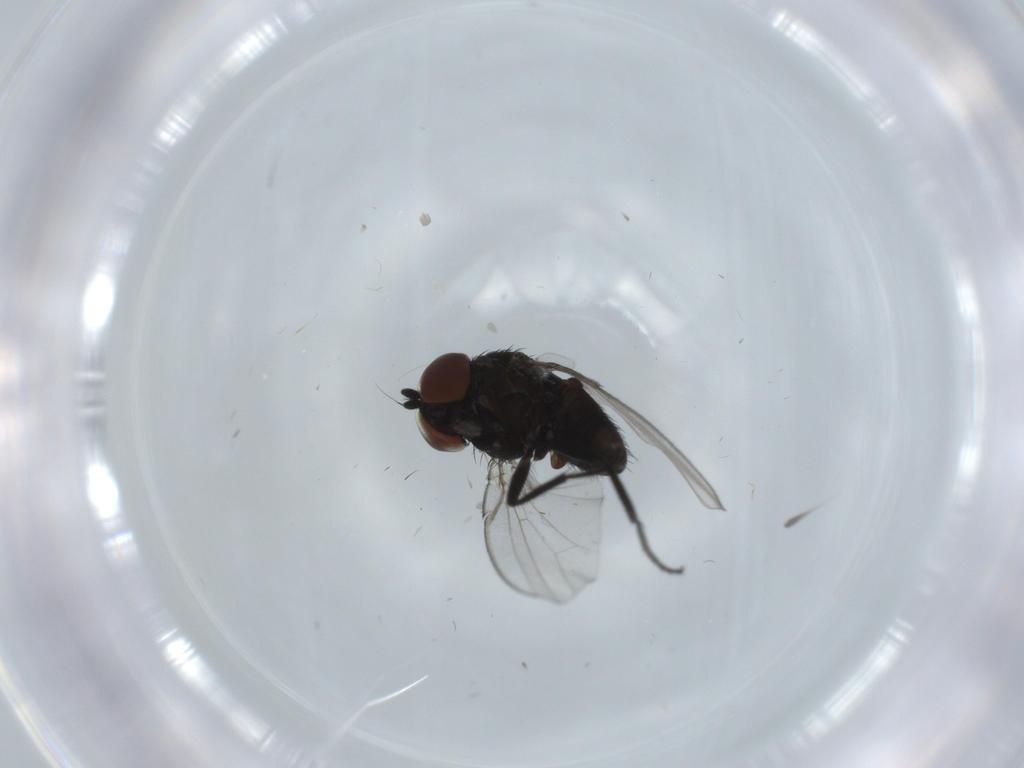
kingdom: Animalia
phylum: Arthropoda
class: Insecta
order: Diptera
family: Milichiidae
